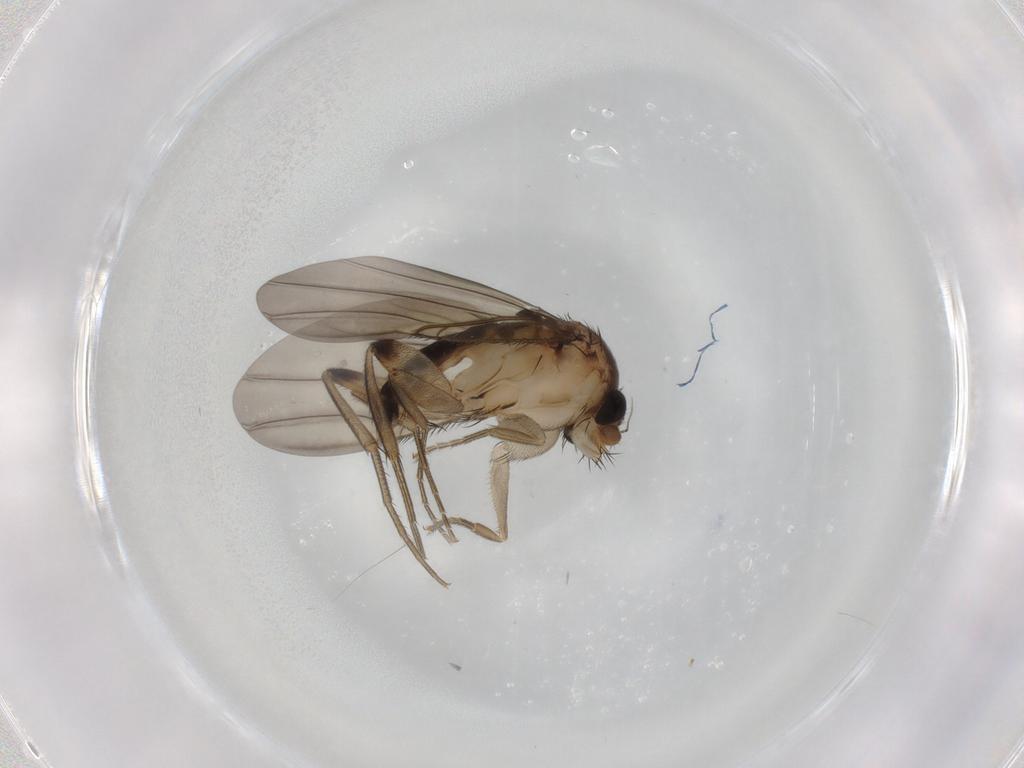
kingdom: Animalia
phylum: Arthropoda
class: Insecta
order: Diptera
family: Phoridae
